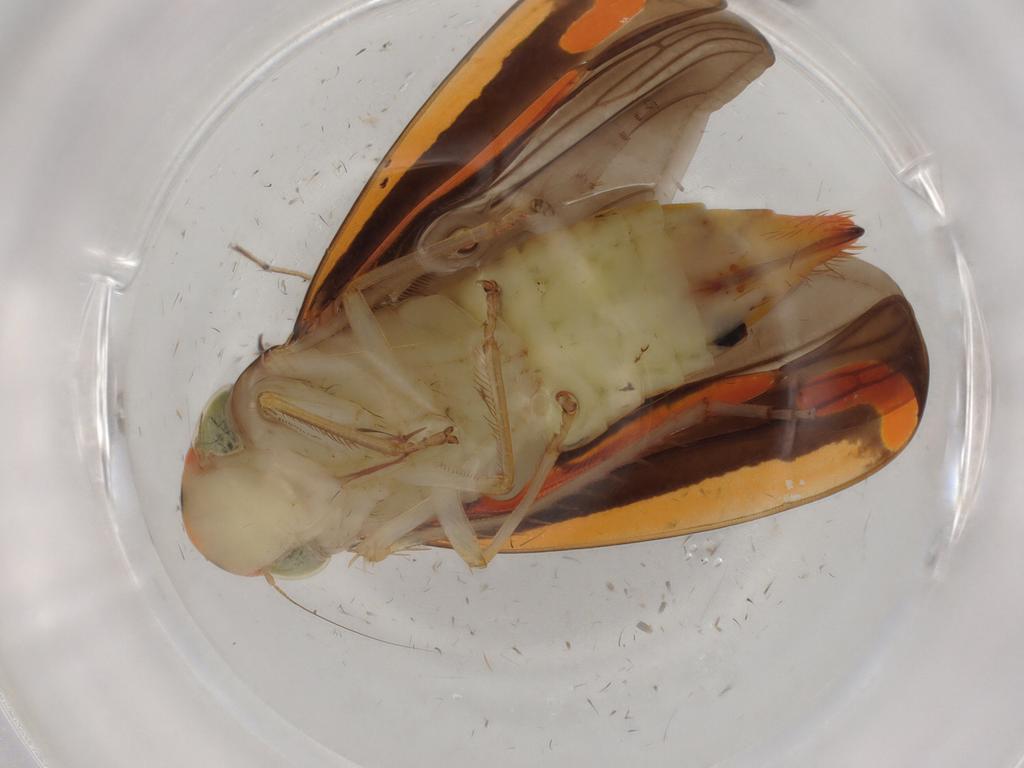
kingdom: Animalia
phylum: Arthropoda
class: Insecta
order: Hemiptera
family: Cicadellidae
